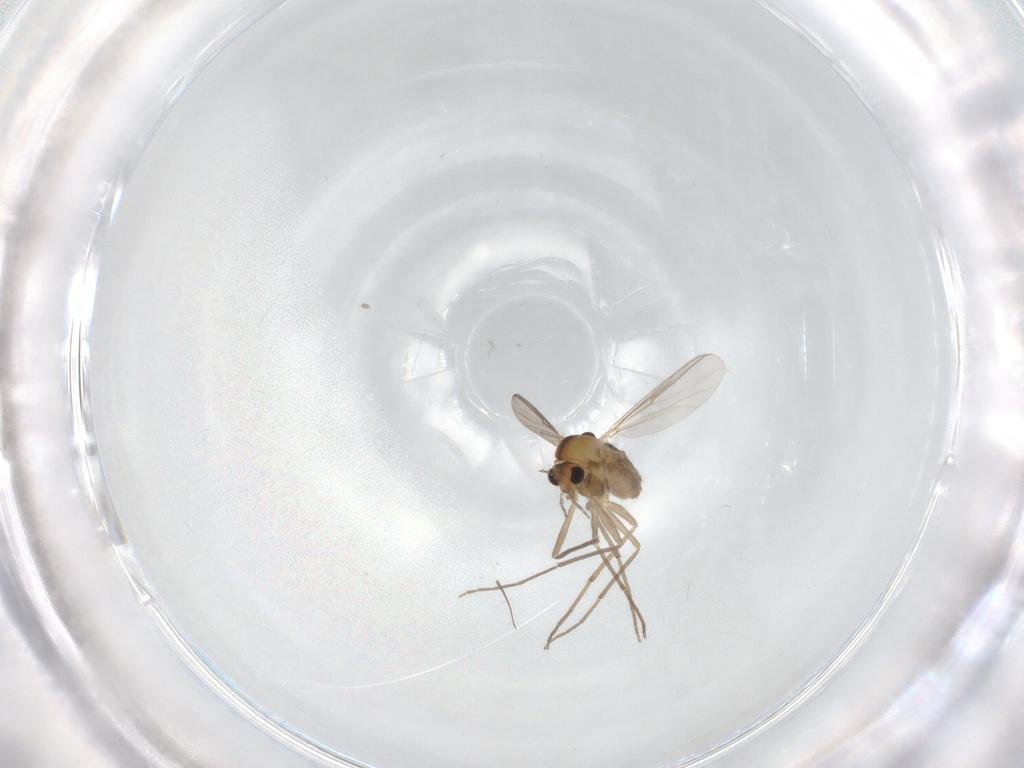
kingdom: Animalia
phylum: Arthropoda
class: Insecta
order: Diptera
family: Chironomidae
